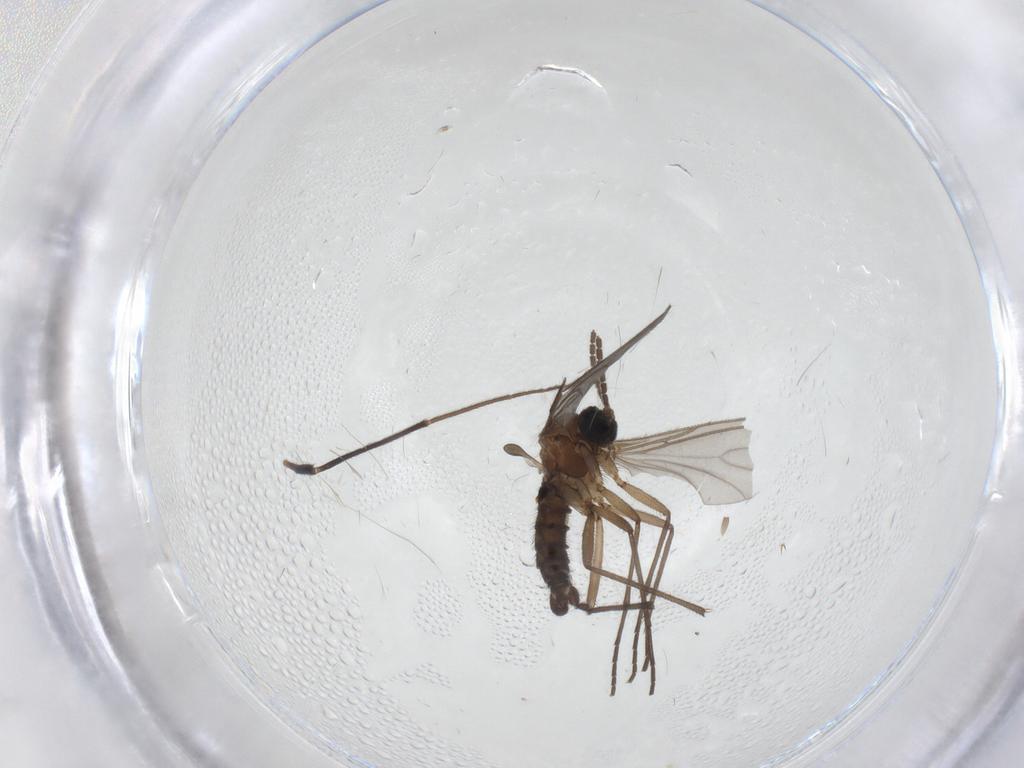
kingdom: Animalia
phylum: Arthropoda
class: Insecta
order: Diptera
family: Chironomidae
